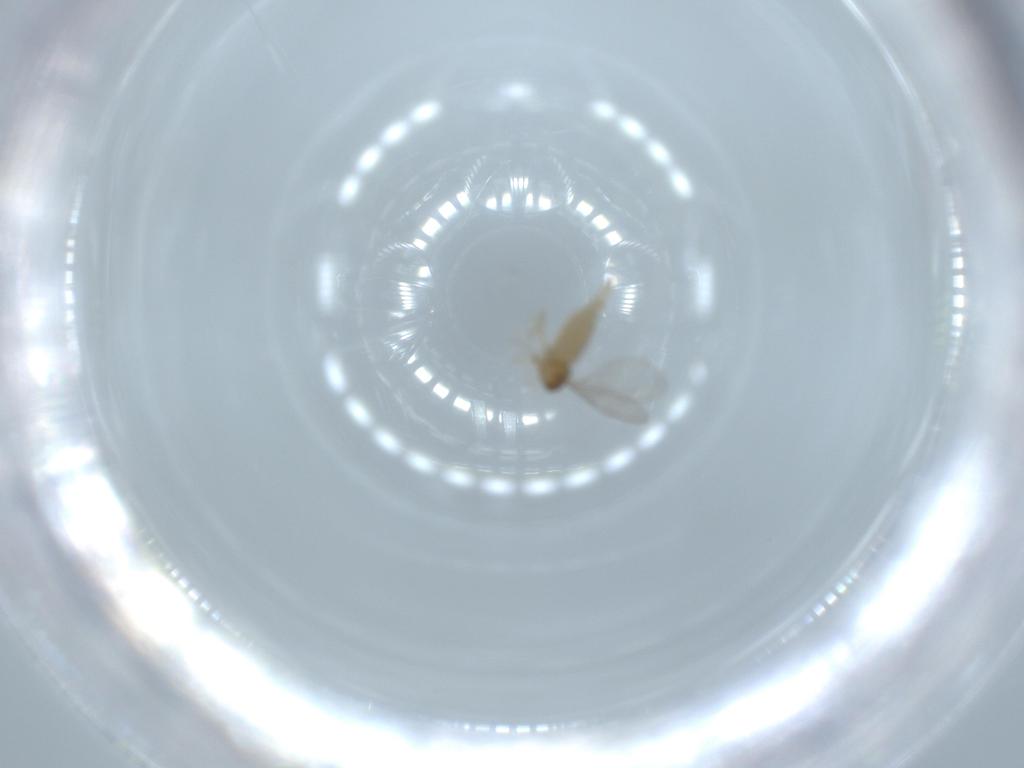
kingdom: Animalia
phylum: Arthropoda
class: Insecta
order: Diptera
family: Cecidomyiidae
